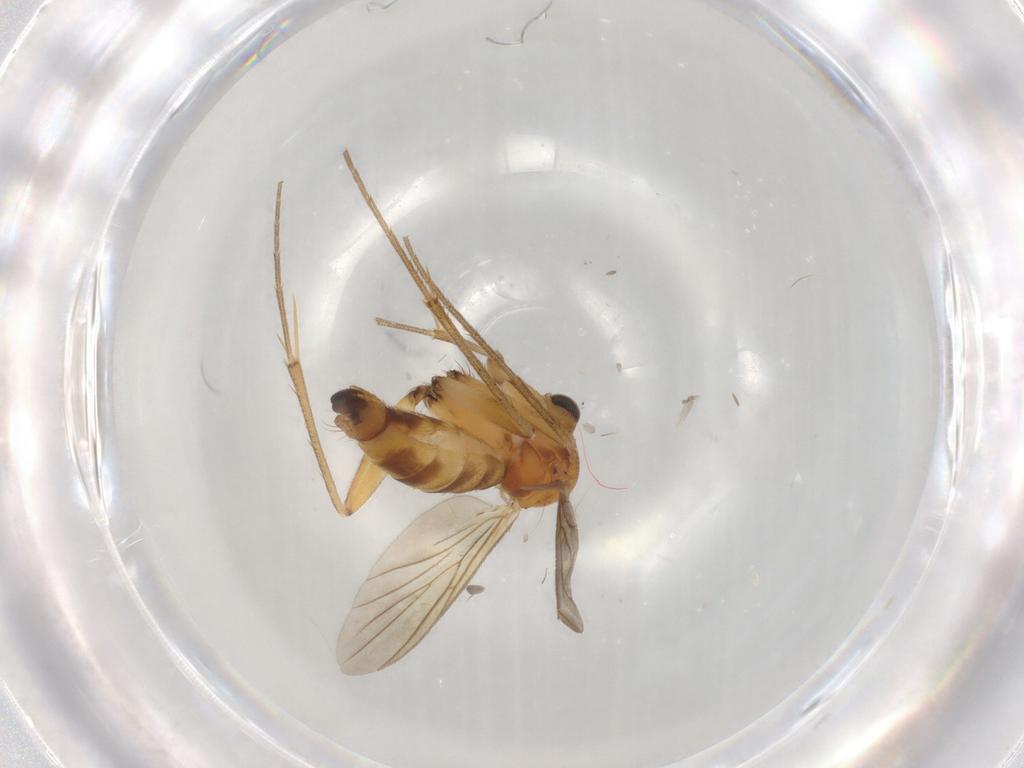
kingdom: Animalia
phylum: Arthropoda
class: Insecta
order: Diptera
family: Mycetophilidae
